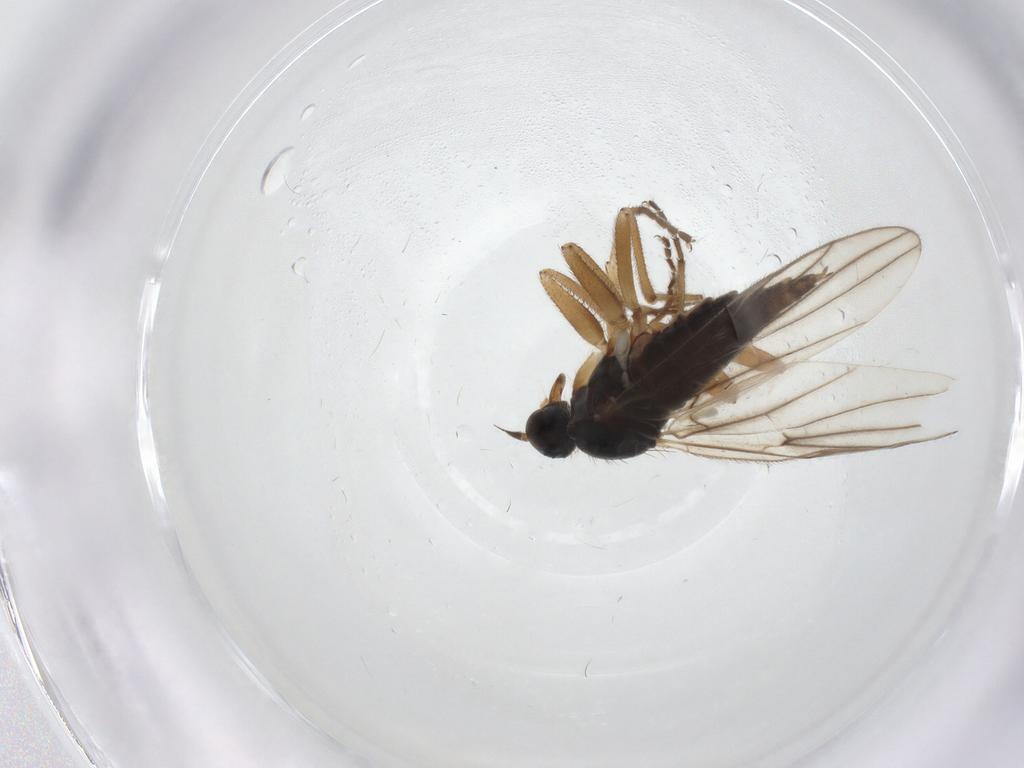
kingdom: Animalia
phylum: Arthropoda
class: Insecta
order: Diptera
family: Hybotidae
